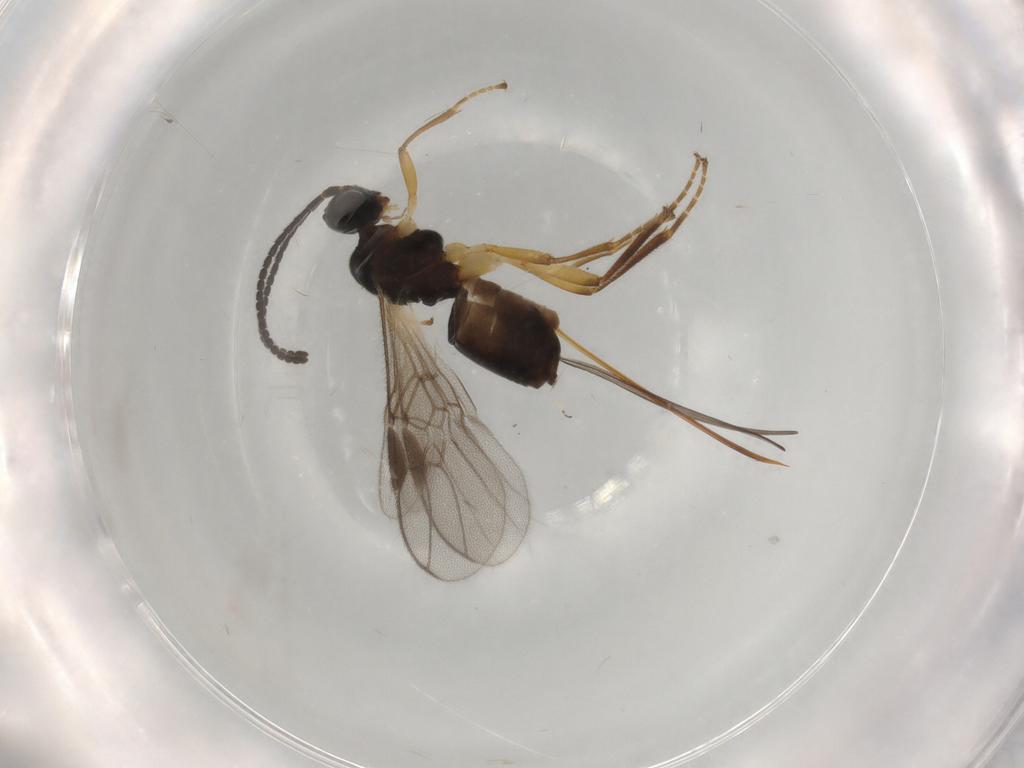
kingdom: Animalia
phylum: Arthropoda
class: Insecta
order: Hymenoptera
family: Braconidae
